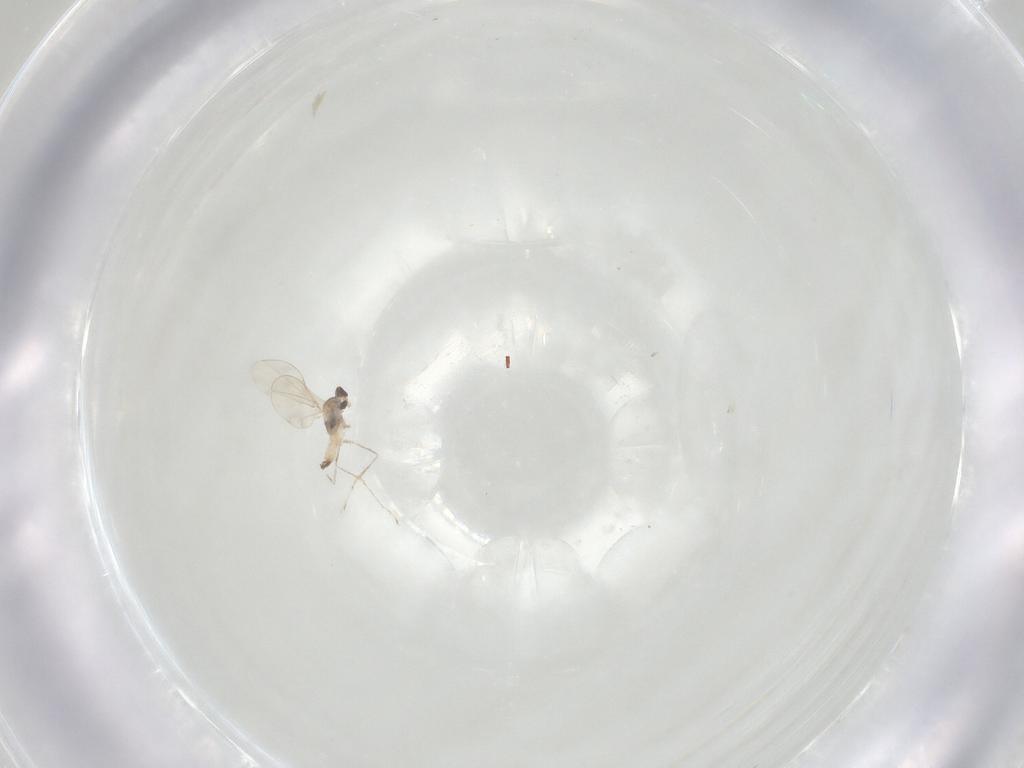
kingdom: Animalia
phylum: Arthropoda
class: Insecta
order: Diptera
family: Cecidomyiidae
